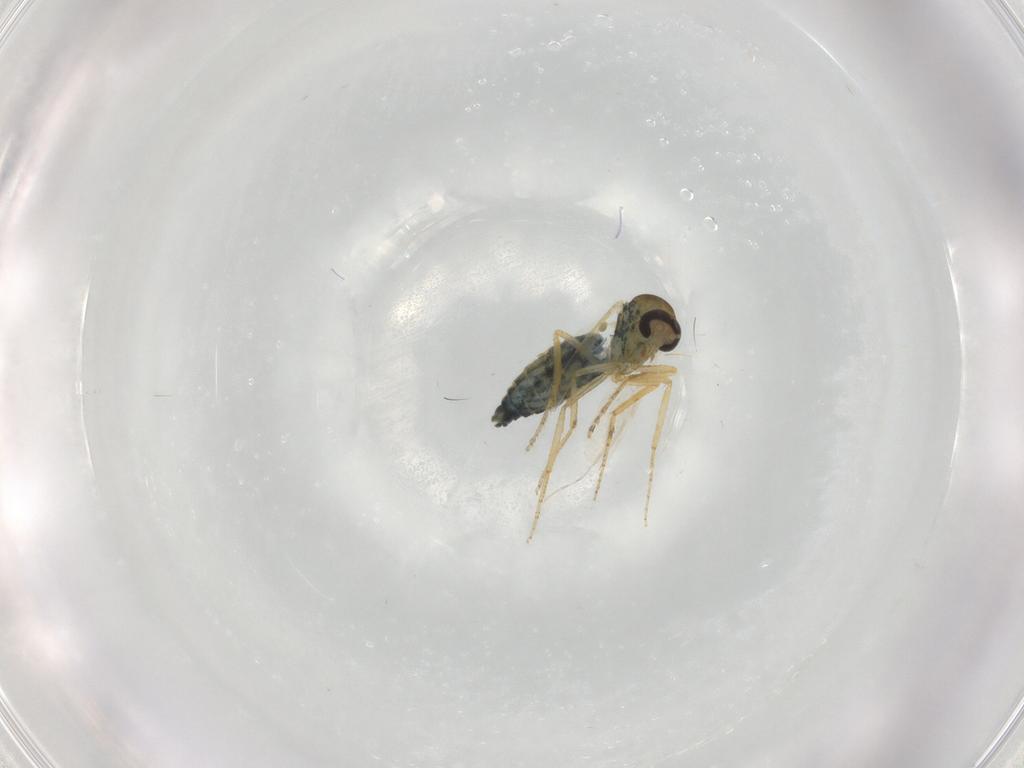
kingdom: Animalia
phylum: Arthropoda
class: Insecta
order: Diptera
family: Ceratopogonidae
